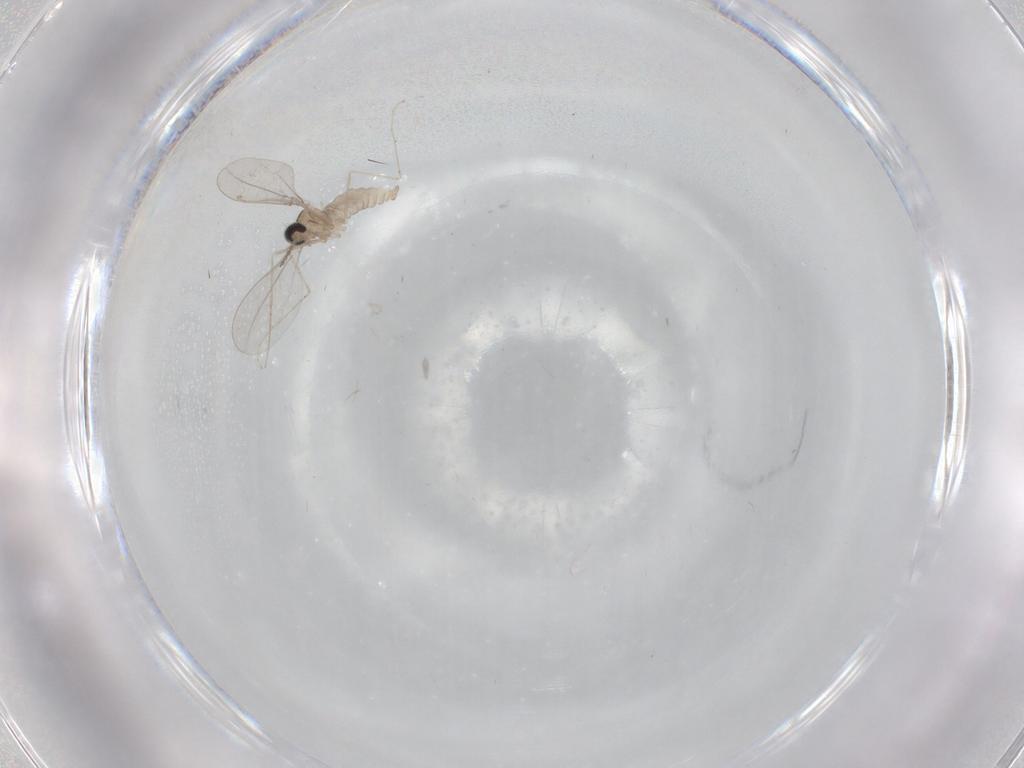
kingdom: Animalia
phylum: Arthropoda
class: Insecta
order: Diptera
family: Cecidomyiidae
